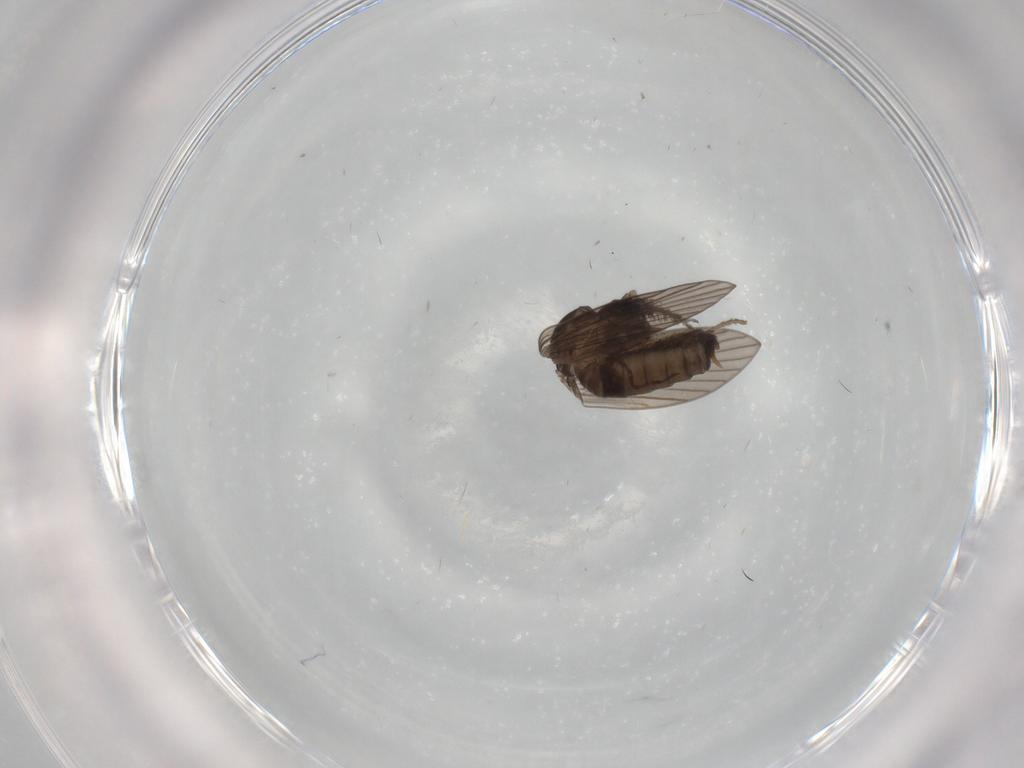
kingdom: Animalia
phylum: Arthropoda
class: Insecta
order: Diptera
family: Psychodidae
